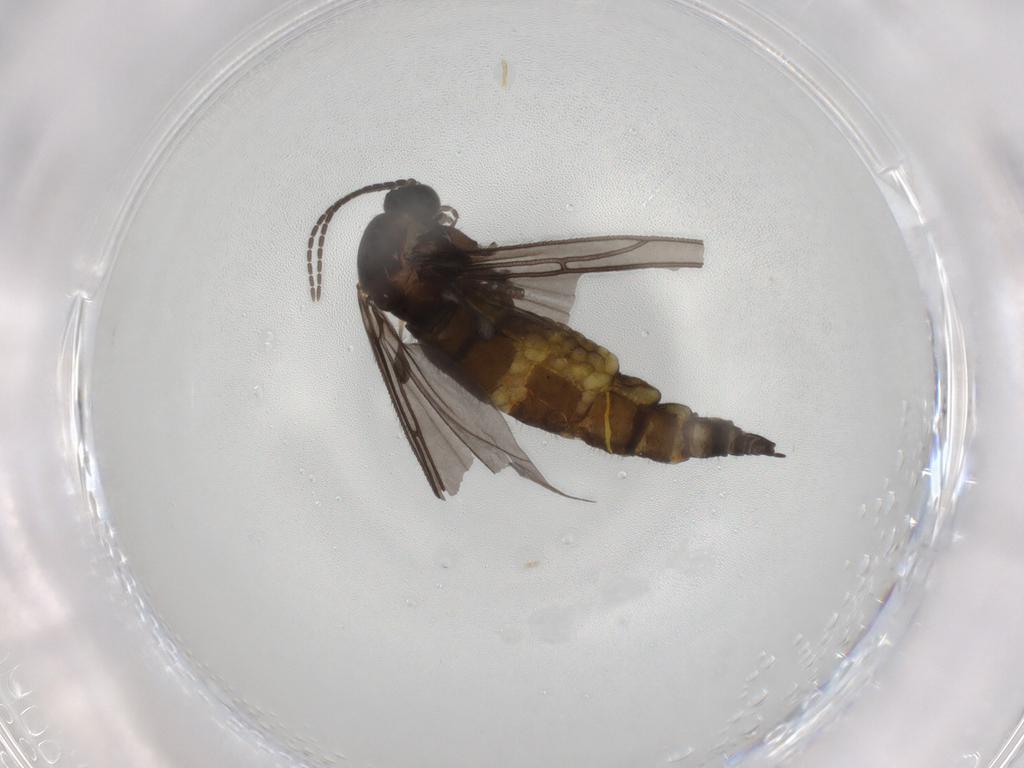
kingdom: Animalia
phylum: Arthropoda
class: Insecta
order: Diptera
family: Sciaridae
